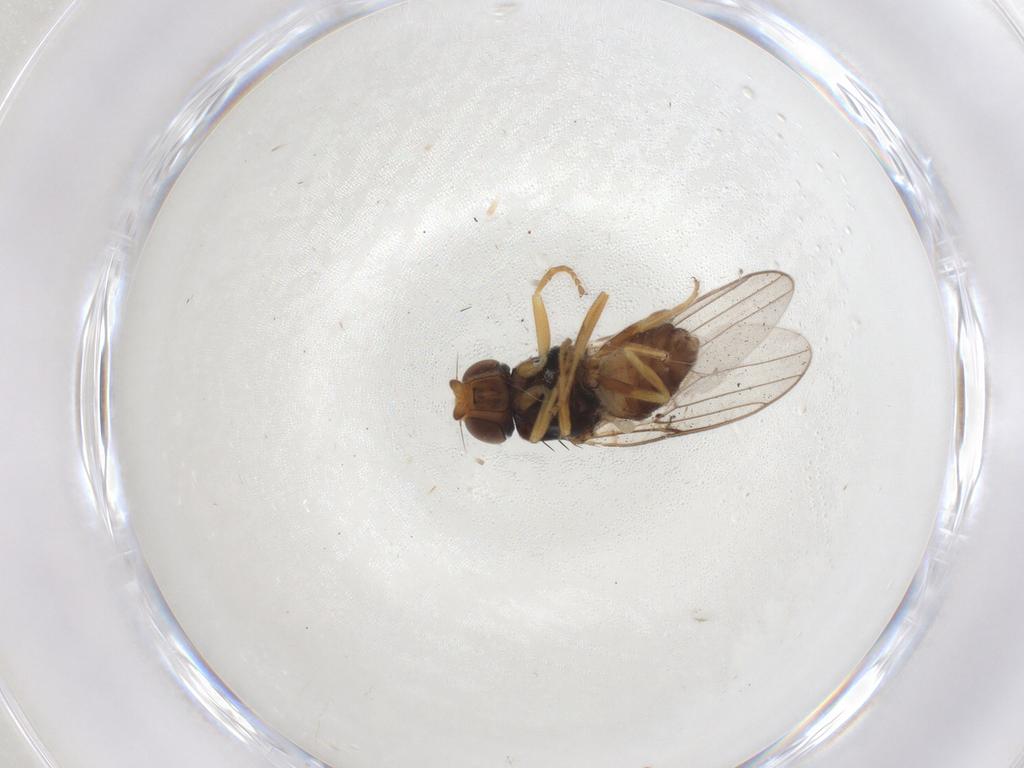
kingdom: Animalia
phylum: Arthropoda
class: Insecta
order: Diptera
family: Chloropidae
